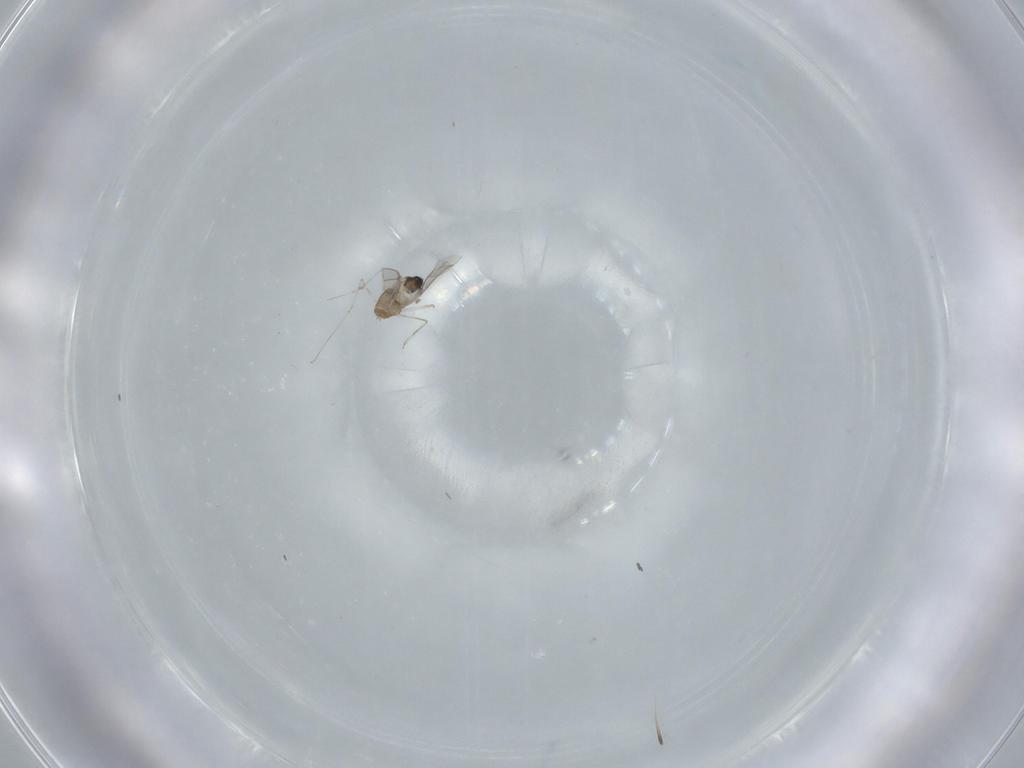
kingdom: Animalia
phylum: Arthropoda
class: Insecta
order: Diptera
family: Cecidomyiidae
